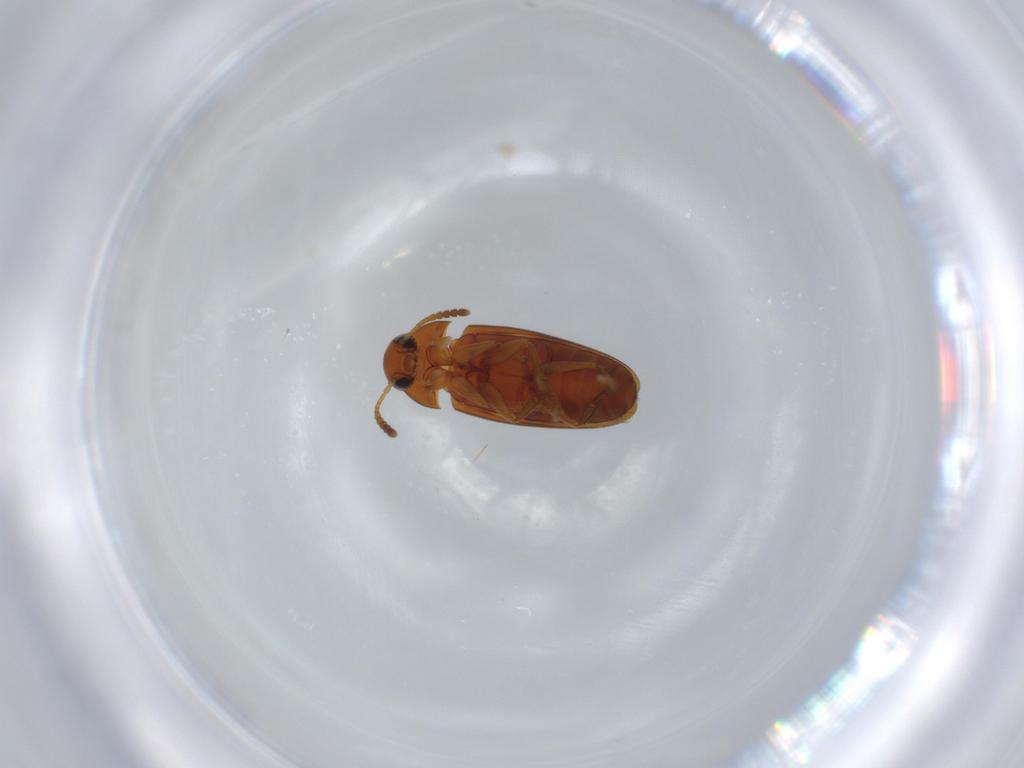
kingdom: Animalia
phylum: Arthropoda
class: Insecta
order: Coleoptera
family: Scraptiidae
